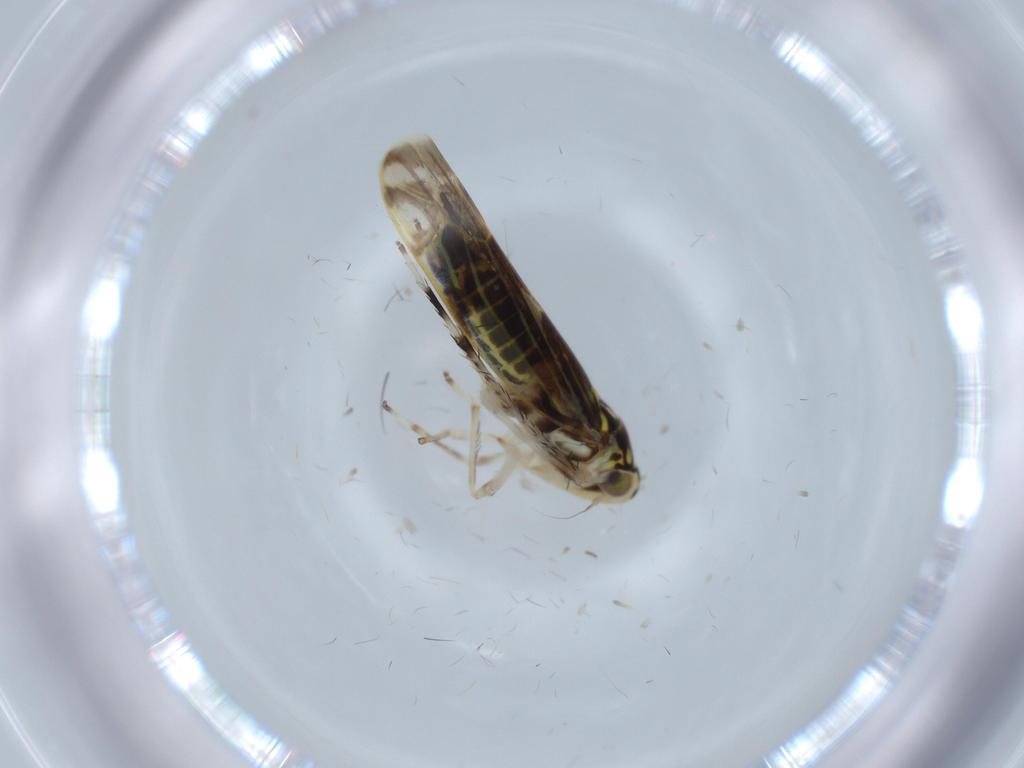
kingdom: Animalia
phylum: Arthropoda
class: Insecta
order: Hemiptera
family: Cicadellidae
